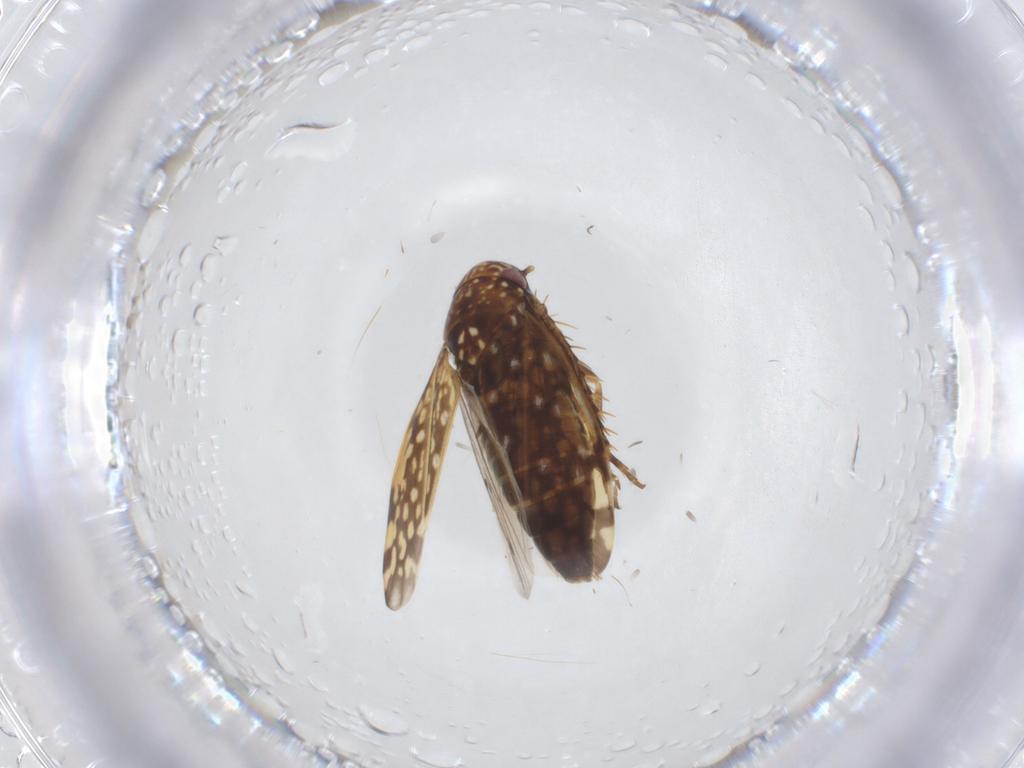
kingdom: Animalia
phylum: Arthropoda
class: Insecta
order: Hemiptera
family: Cicadellidae
